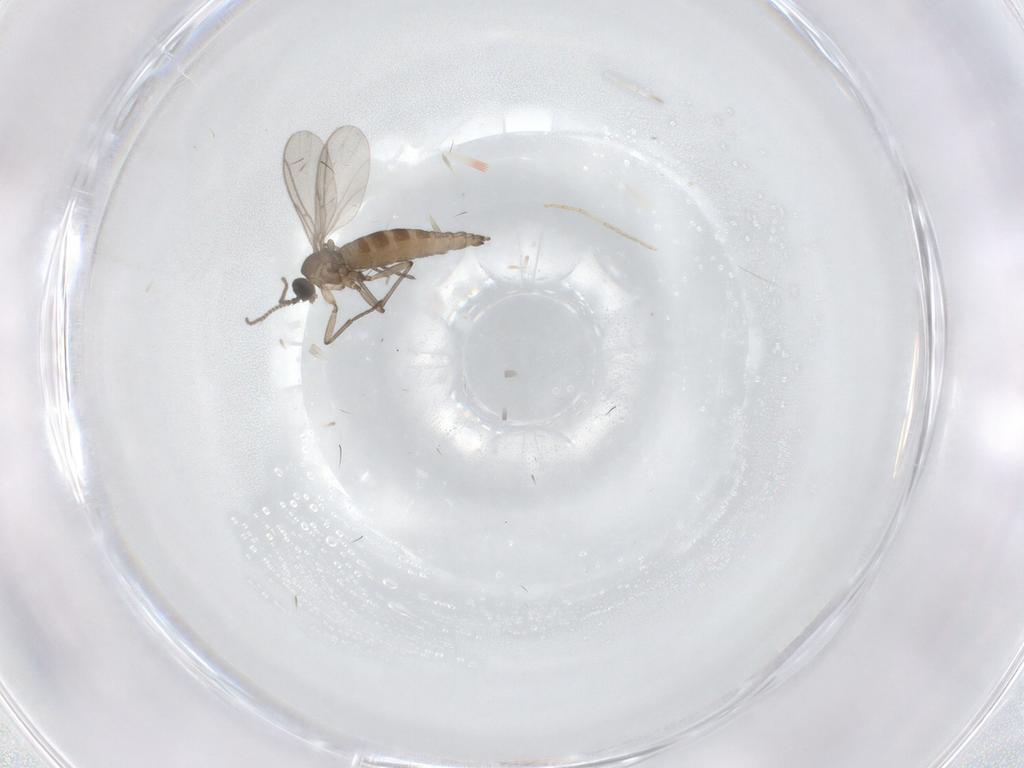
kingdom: Animalia
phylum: Arthropoda
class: Insecta
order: Diptera
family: Sciaridae
